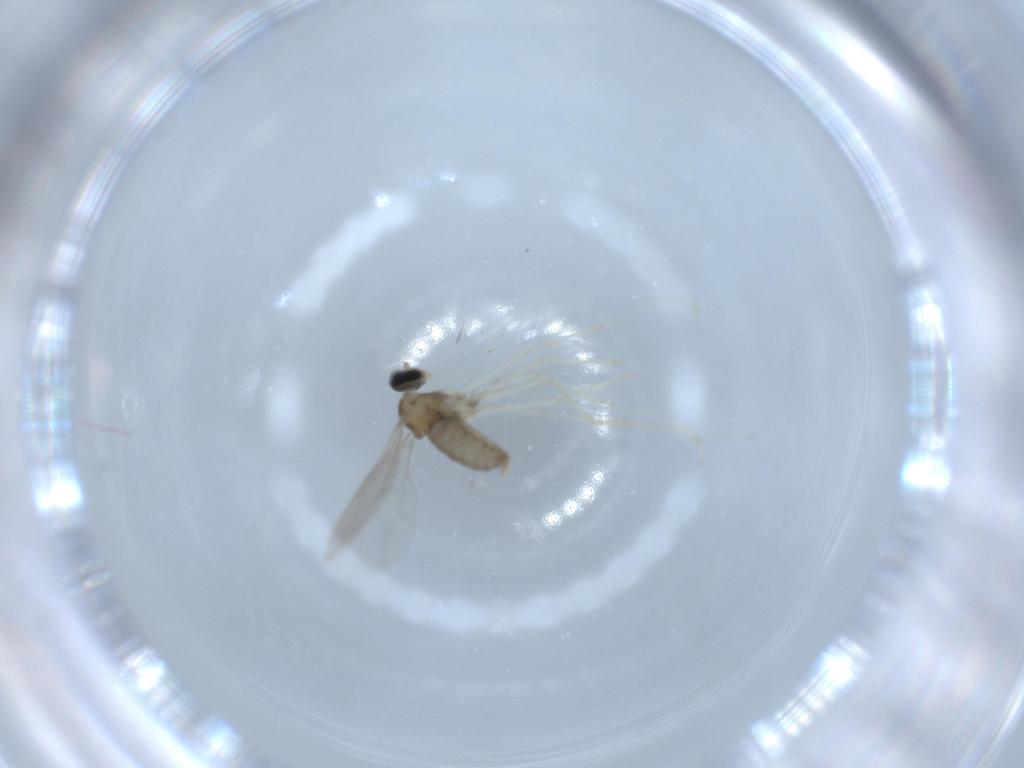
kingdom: Animalia
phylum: Arthropoda
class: Insecta
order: Diptera
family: Cecidomyiidae
